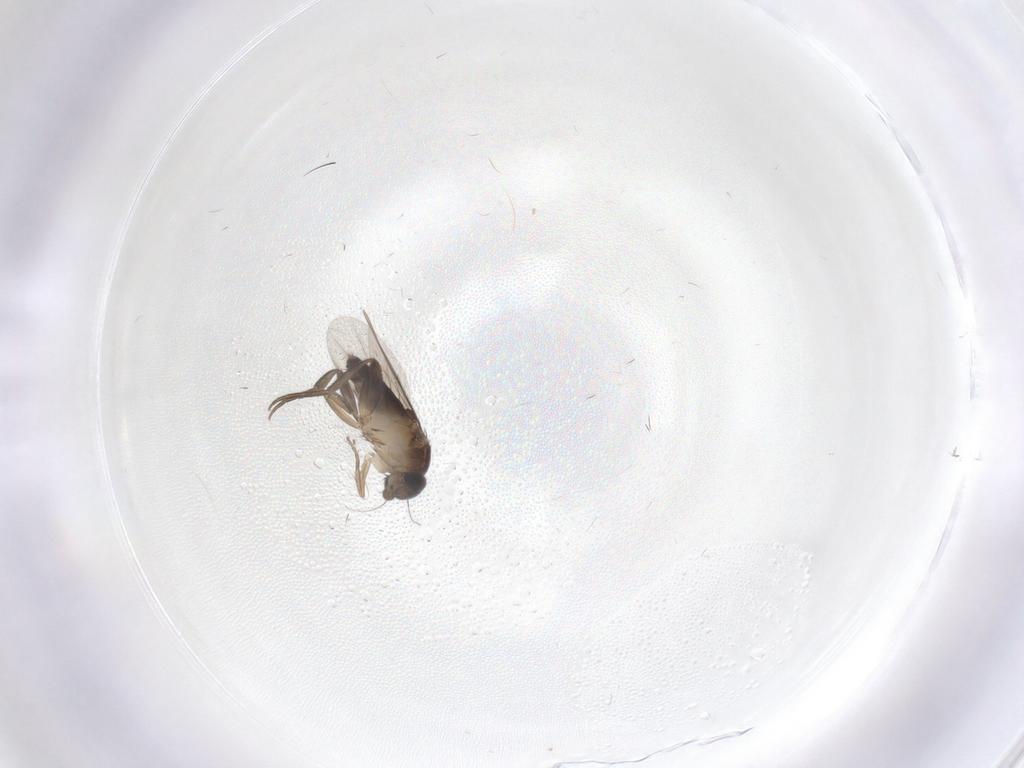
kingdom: Animalia
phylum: Arthropoda
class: Insecta
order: Diptera
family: Phoridae
